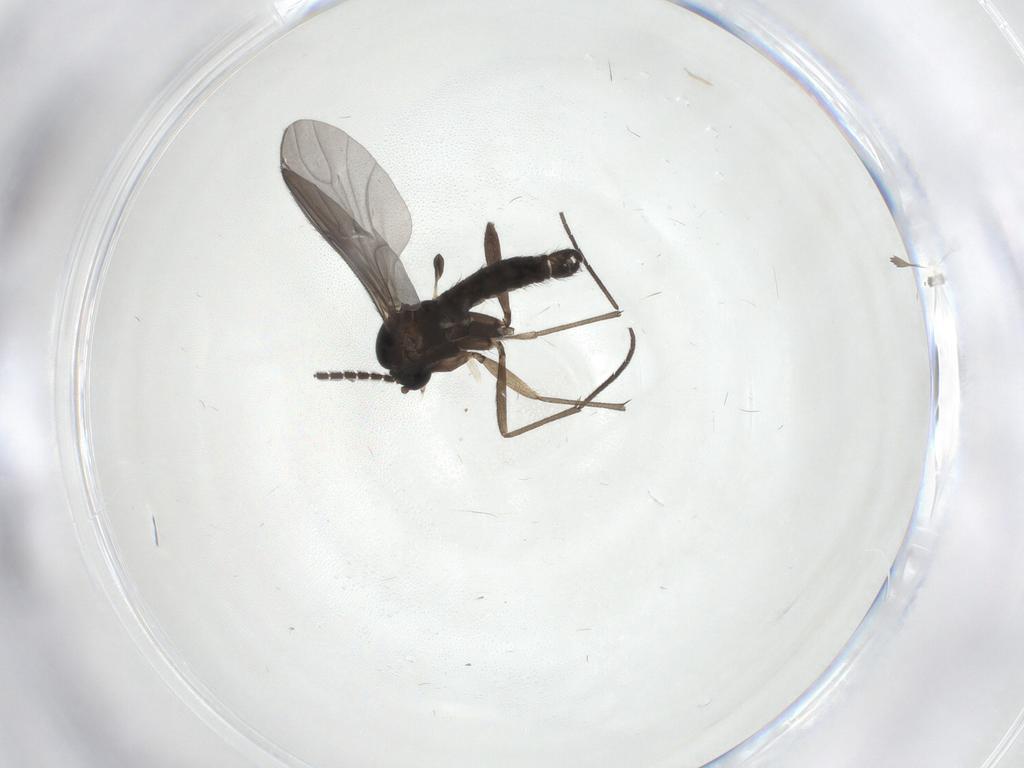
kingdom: Animalia
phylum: Arthropoda
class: Insecta
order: Diptera
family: Sciaridae
